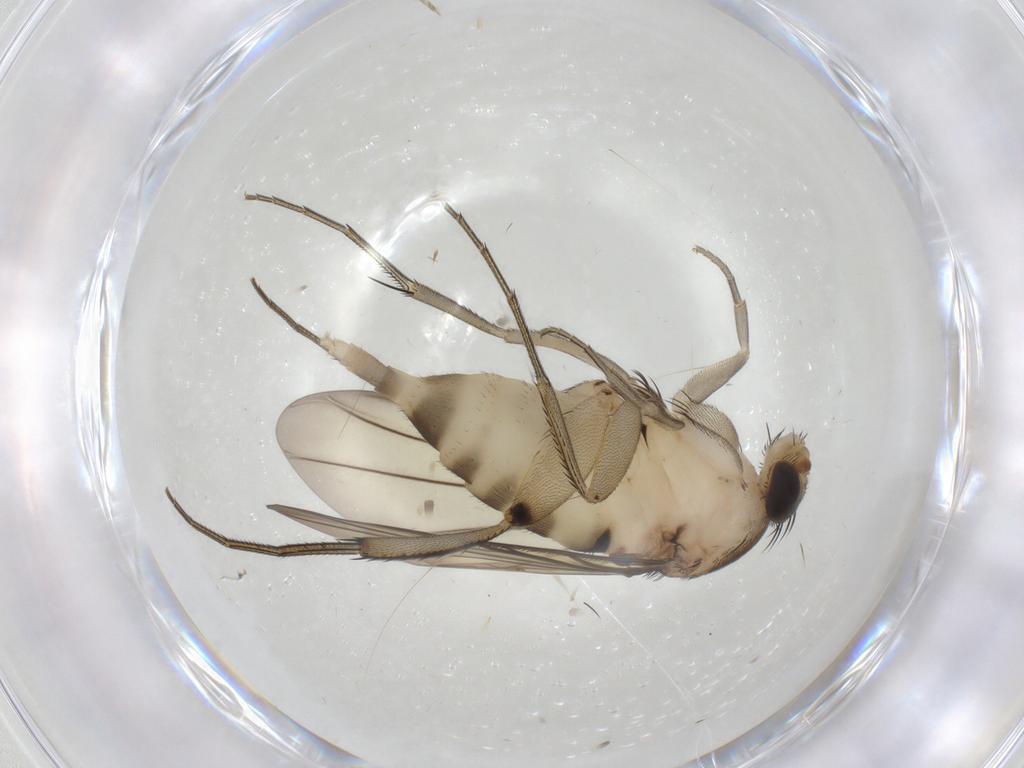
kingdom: Animalia
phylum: Arthropoda
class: Insecta
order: Diptera
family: Phoridae
